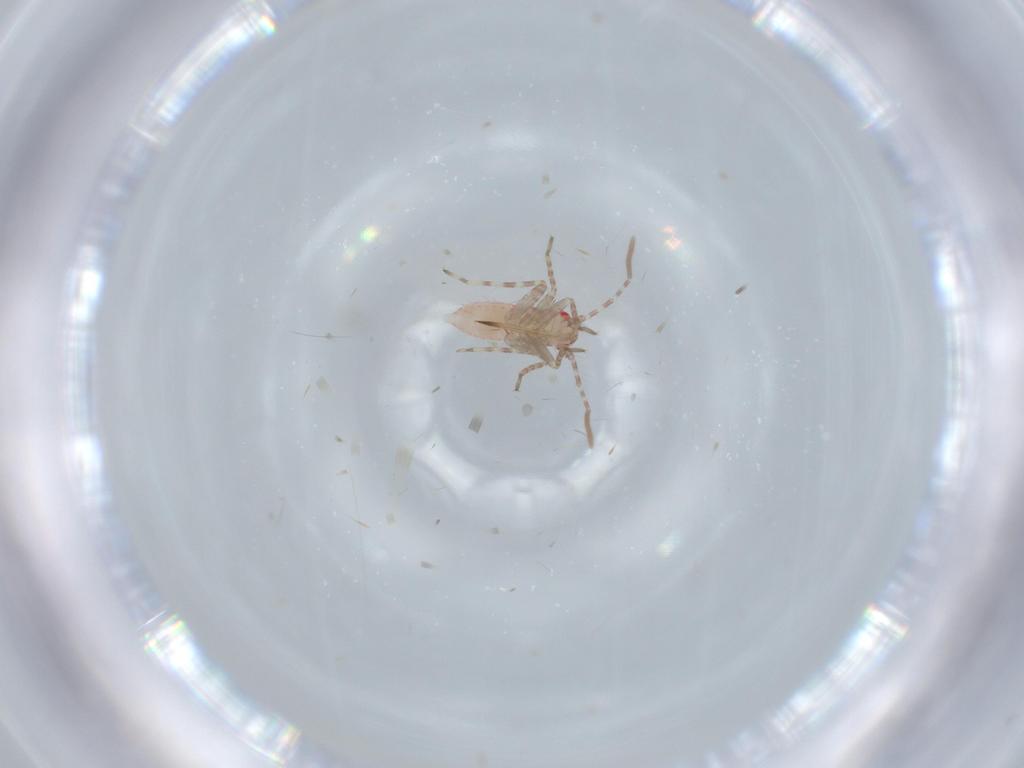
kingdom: Animalia
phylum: Arthropoda
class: Insecta
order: Hemiptera
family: Miridae
